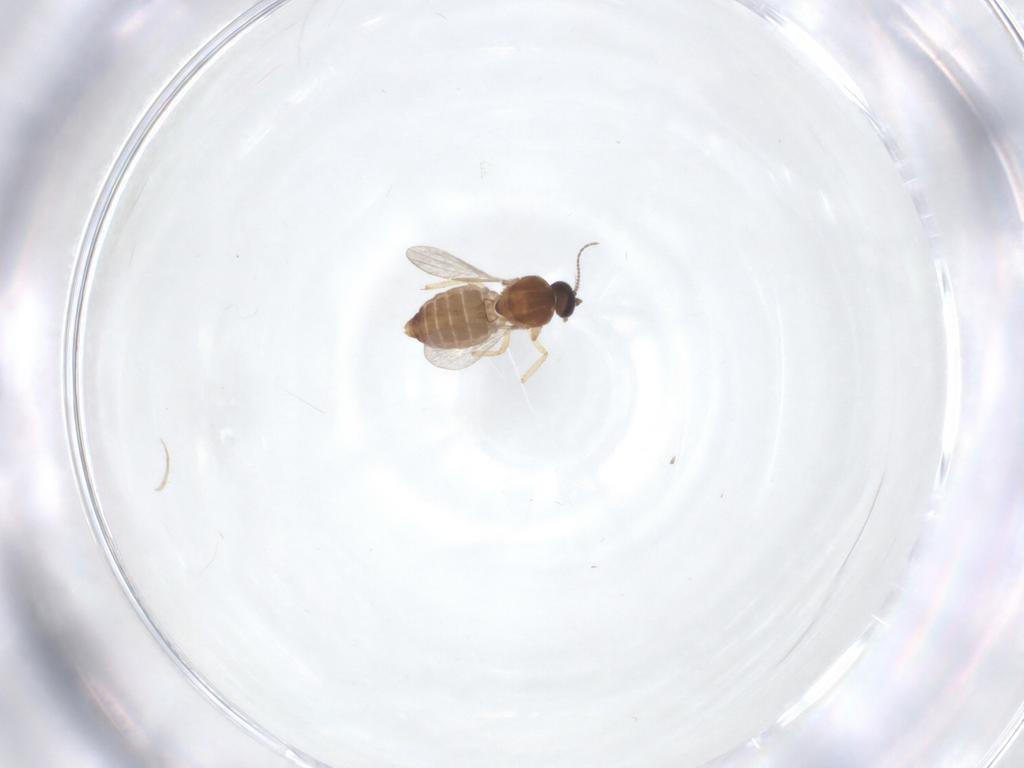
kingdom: Animalia
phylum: Arthropoda
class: Insecta
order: Diptera
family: Ceratopogonidae
